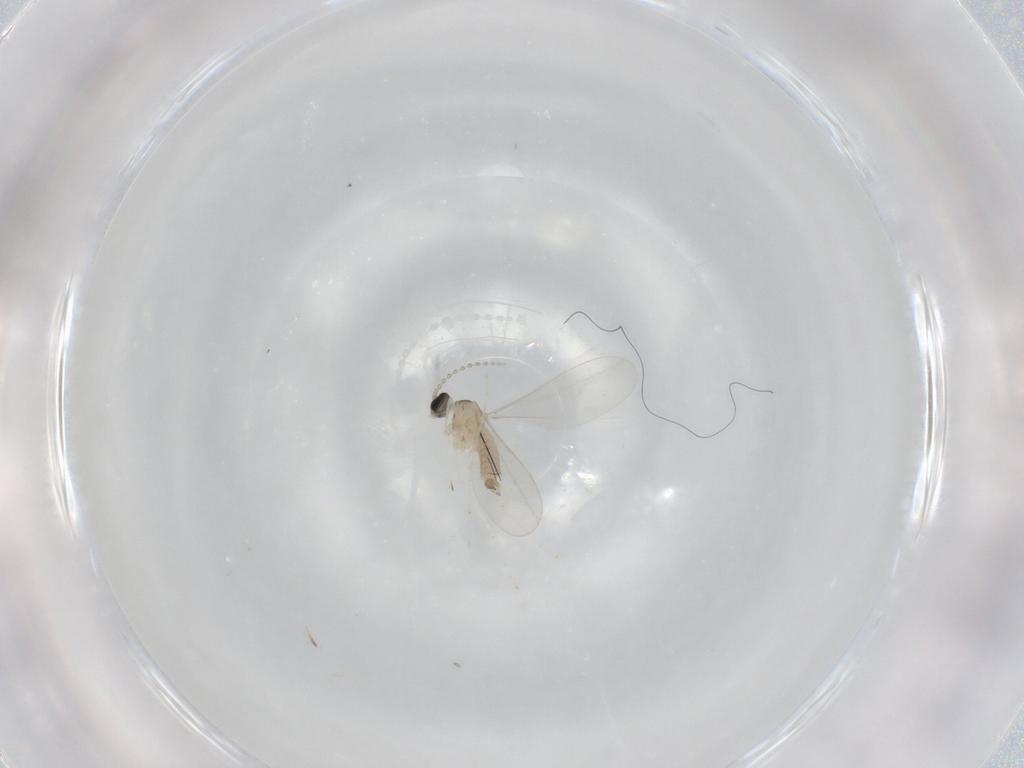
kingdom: Animalia
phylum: Arthropoda
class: Insecta
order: Diptera
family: Cecidomyiidae
